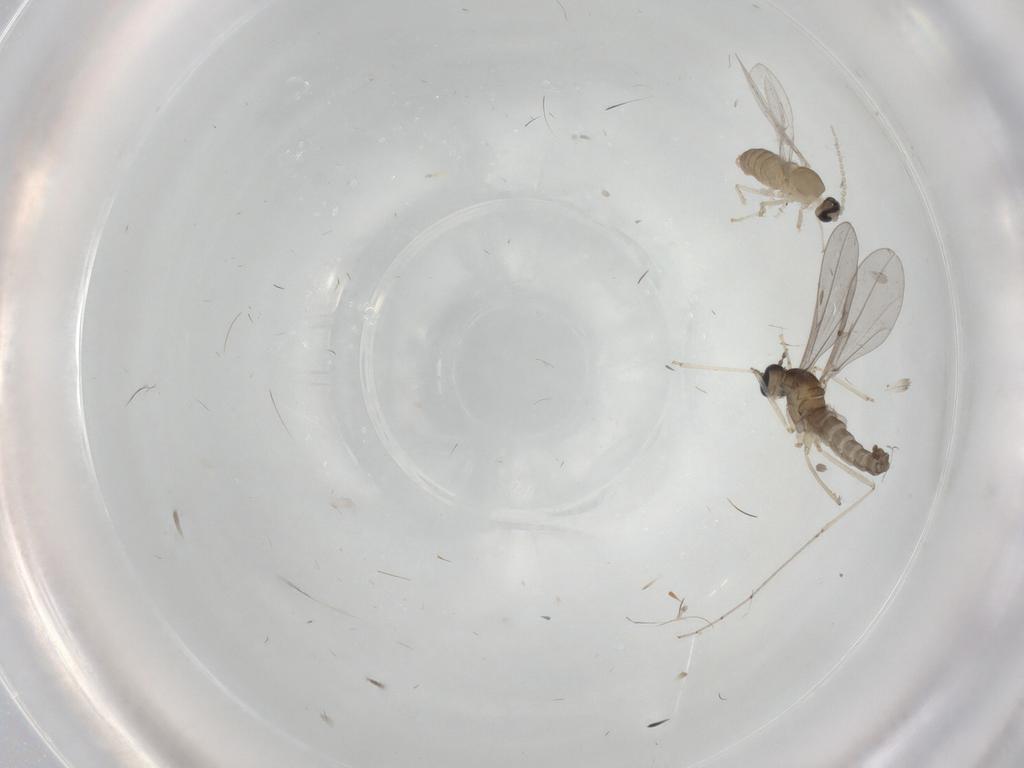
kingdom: Animalia
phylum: Arthropoda
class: Insecta
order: Diptera
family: Cecidomyiidae
